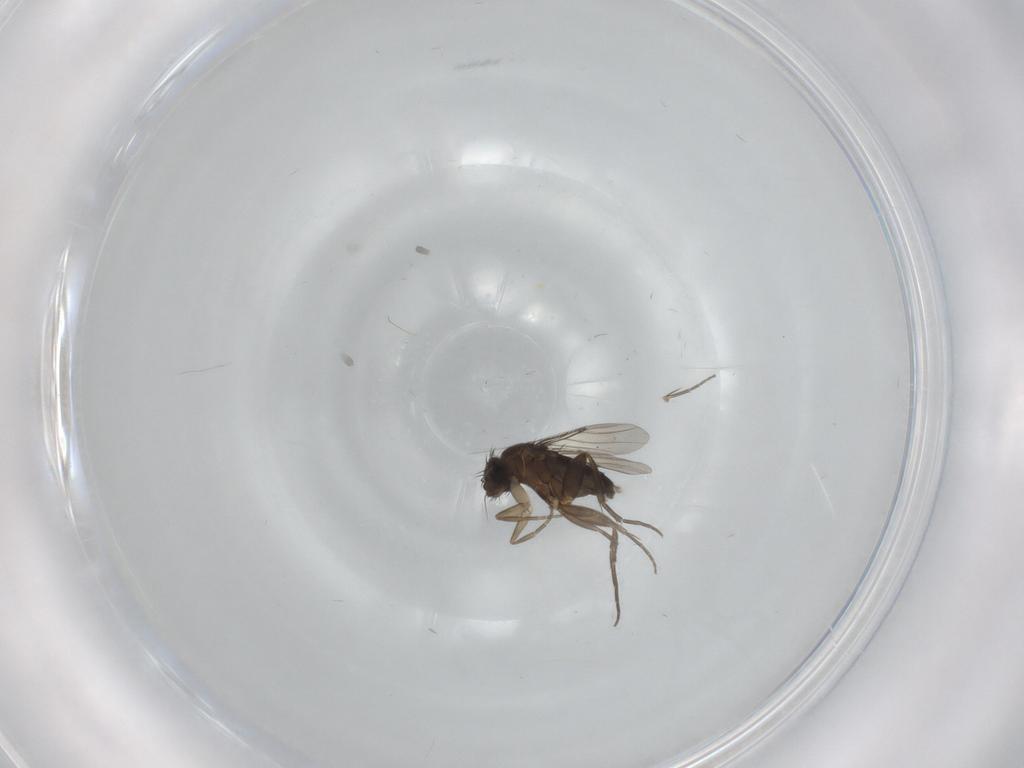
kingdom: Animalia
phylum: Arthropoda
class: Insecta
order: Diptera
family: Phoridae
